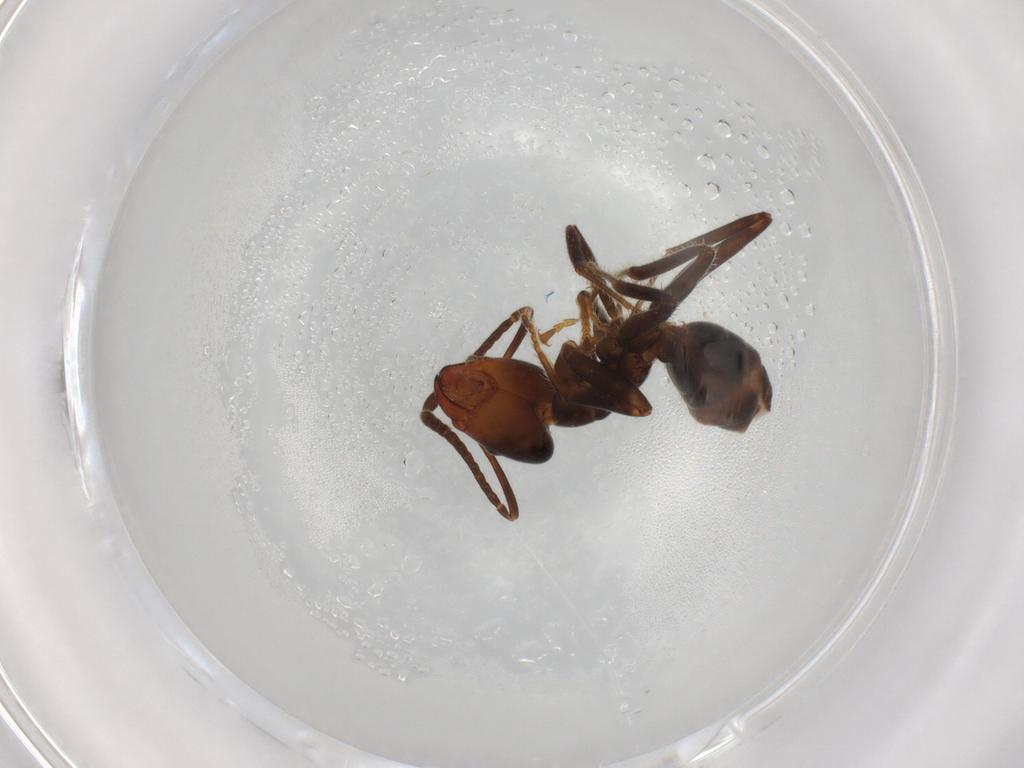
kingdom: Animalia
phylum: Arthropoda
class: Insecta
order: Hymenoptera
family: Formicidae
